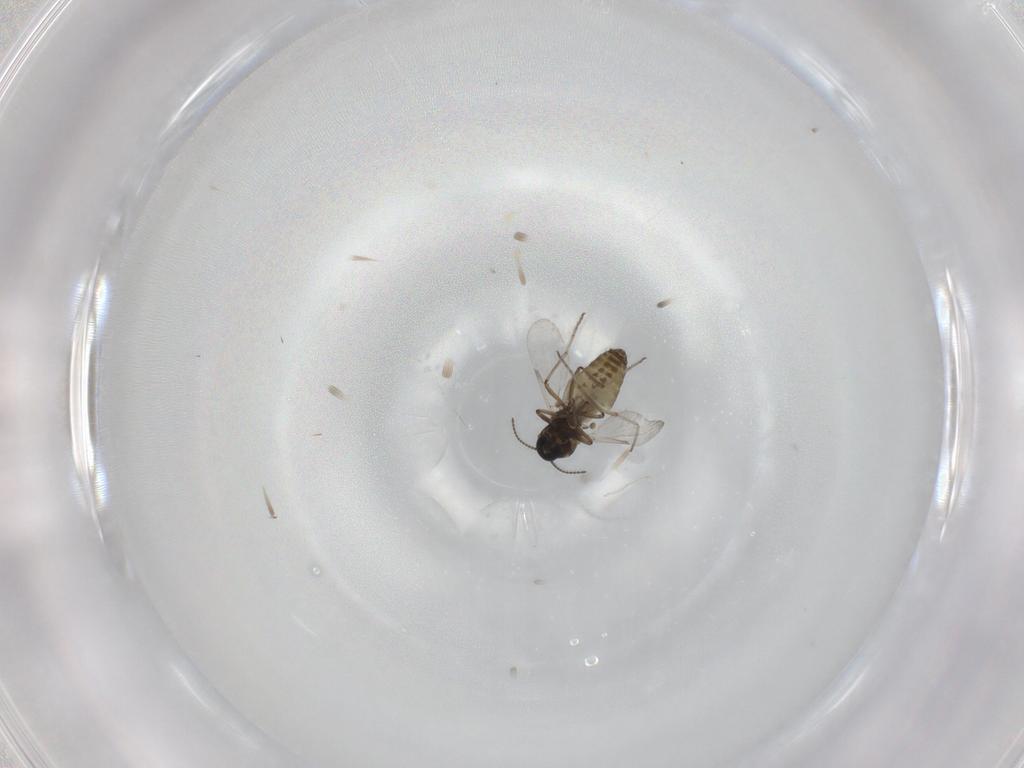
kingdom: Animalia
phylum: Arthropoda
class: Insecta
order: Diptera
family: Ceratopogonidae
